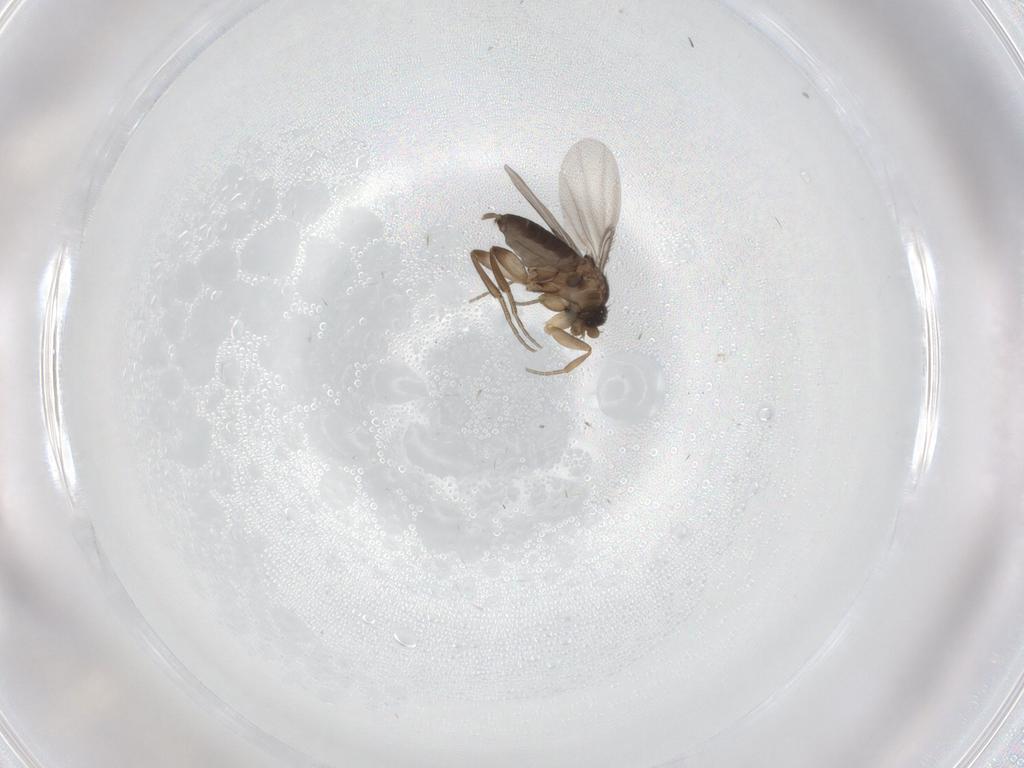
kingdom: Animalia
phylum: Arthropoda
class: Insecta
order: Diptera
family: Phoridae
